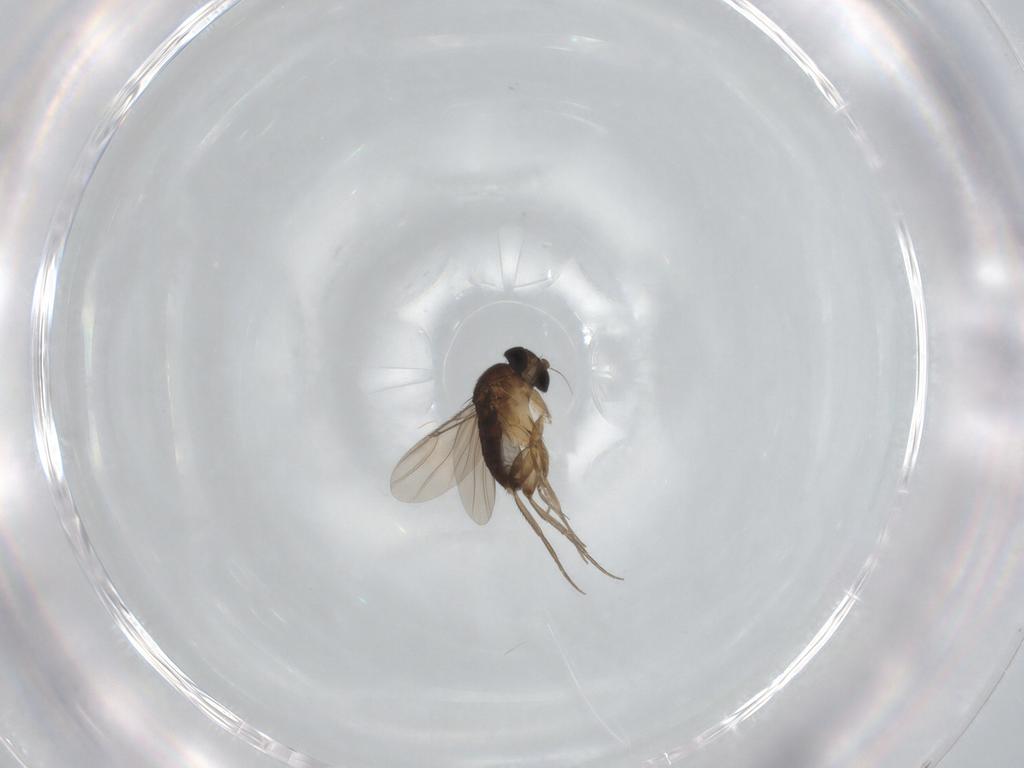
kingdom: Animalia
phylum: Arthropoda
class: Insecta
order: Diptera
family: Phoridae
